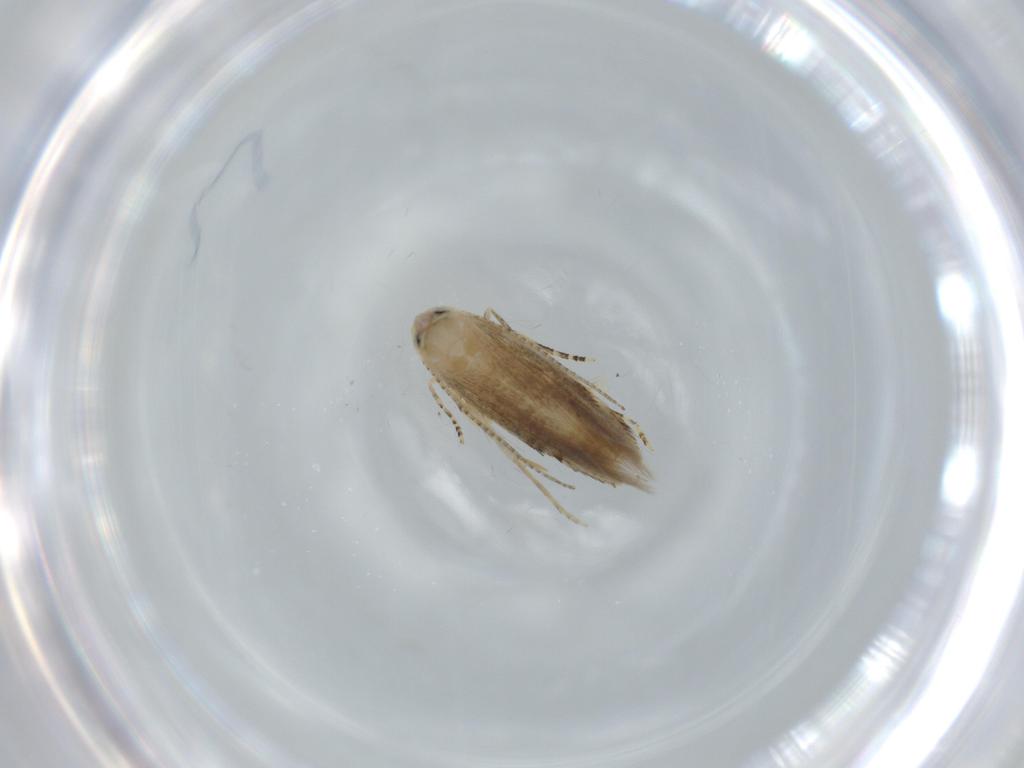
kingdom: Animalia
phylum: Arthropoda
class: Insecta
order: Lepidoptera
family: Bucculatricidae
